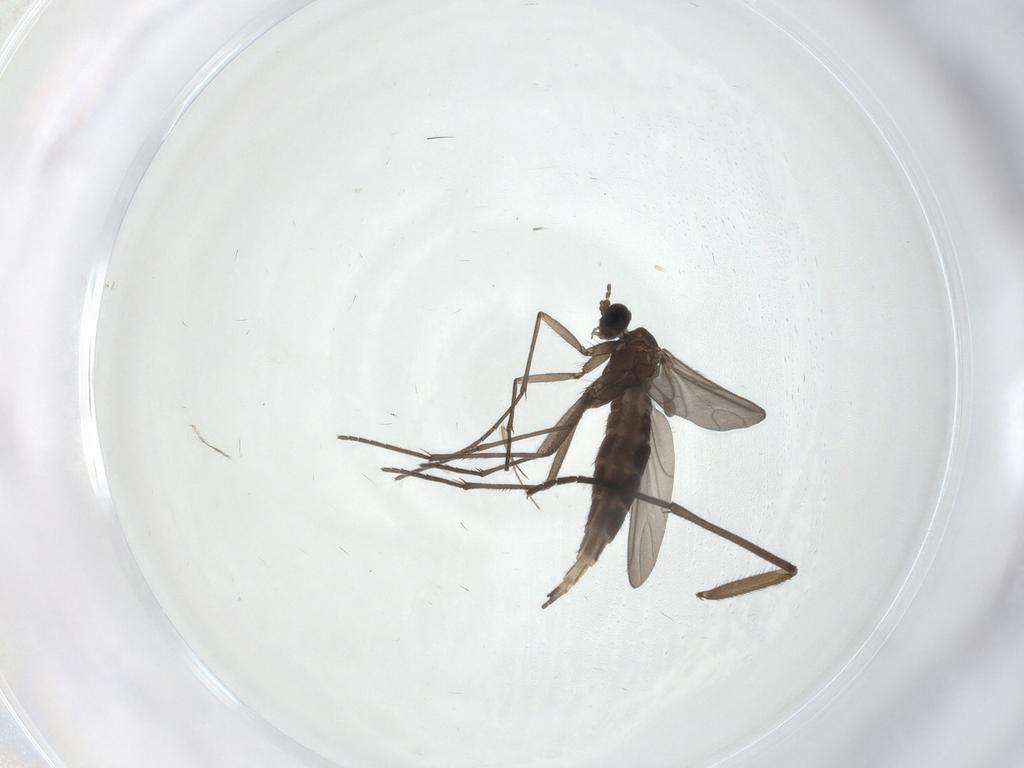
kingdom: Animalia
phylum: Arthropoda
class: Insecta
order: Diptera
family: Sciaridae
